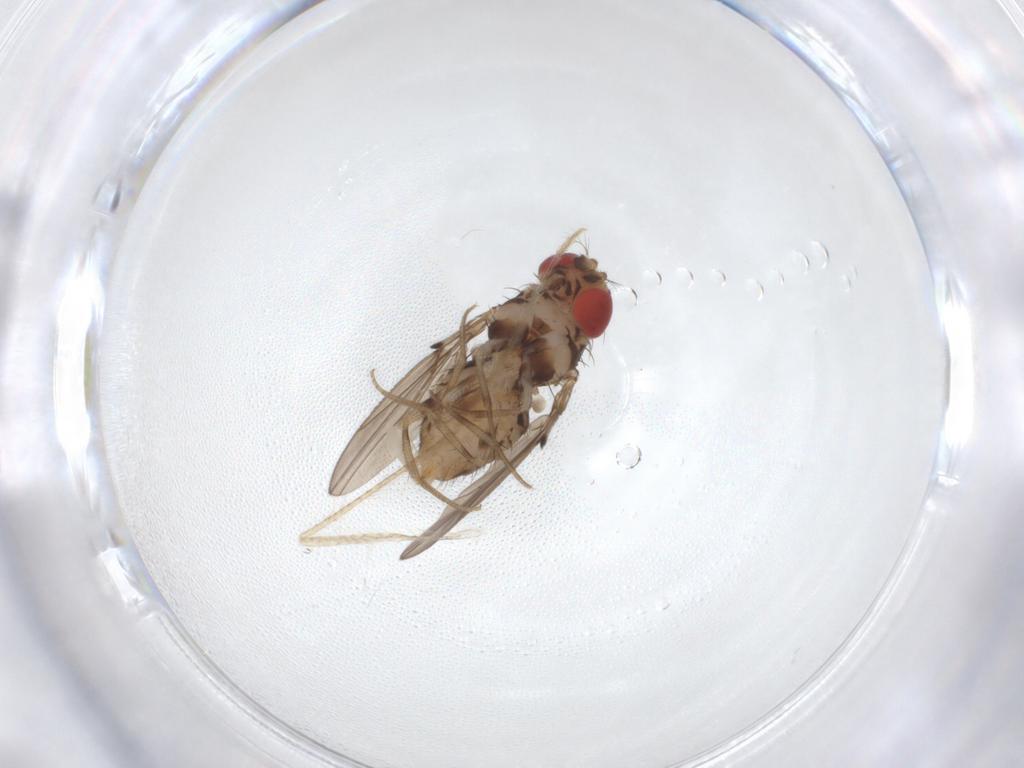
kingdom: Animalia
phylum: Arthropoda
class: Insecta
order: Diptera
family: Drosophilidae
